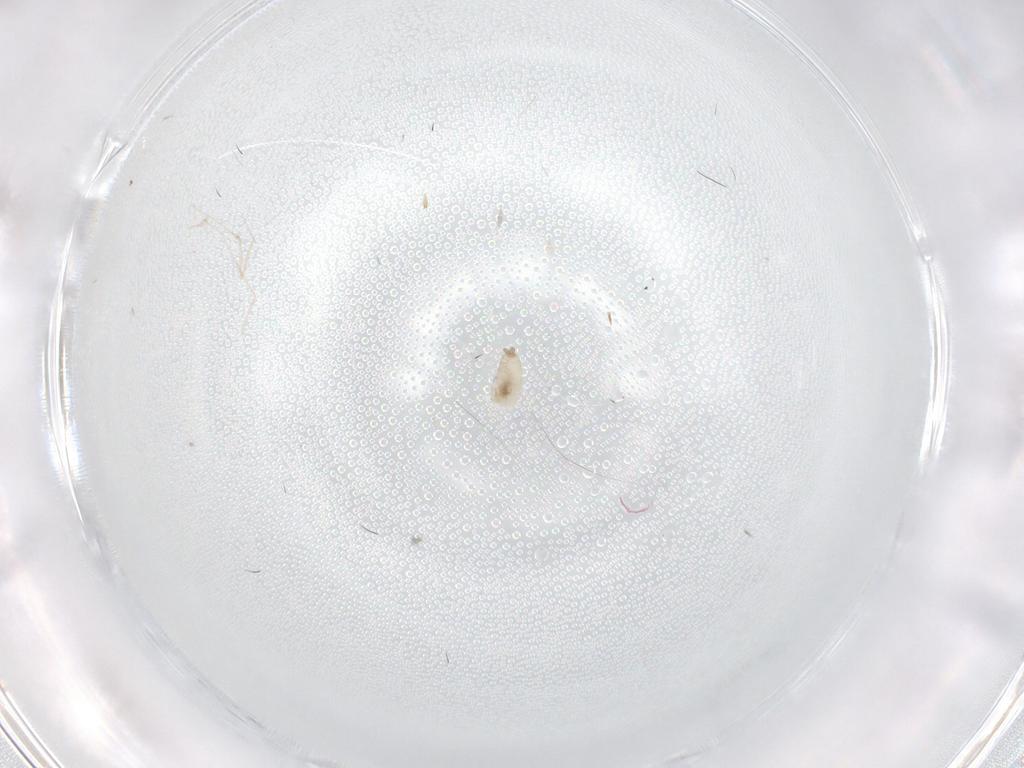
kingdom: Animalia
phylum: Arthropoda
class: Insecta
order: Diptera
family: Cecidomyiidae
